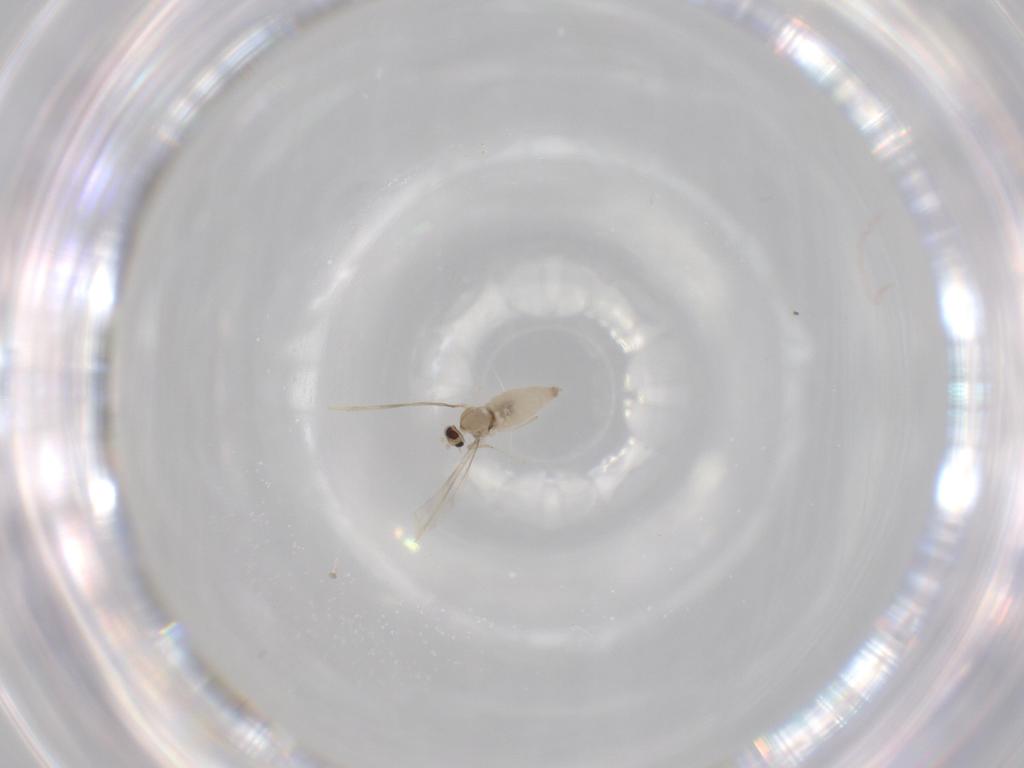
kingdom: Animalia
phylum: Arthropoda
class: Insecta
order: Diptera
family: Cecidomyiidae
